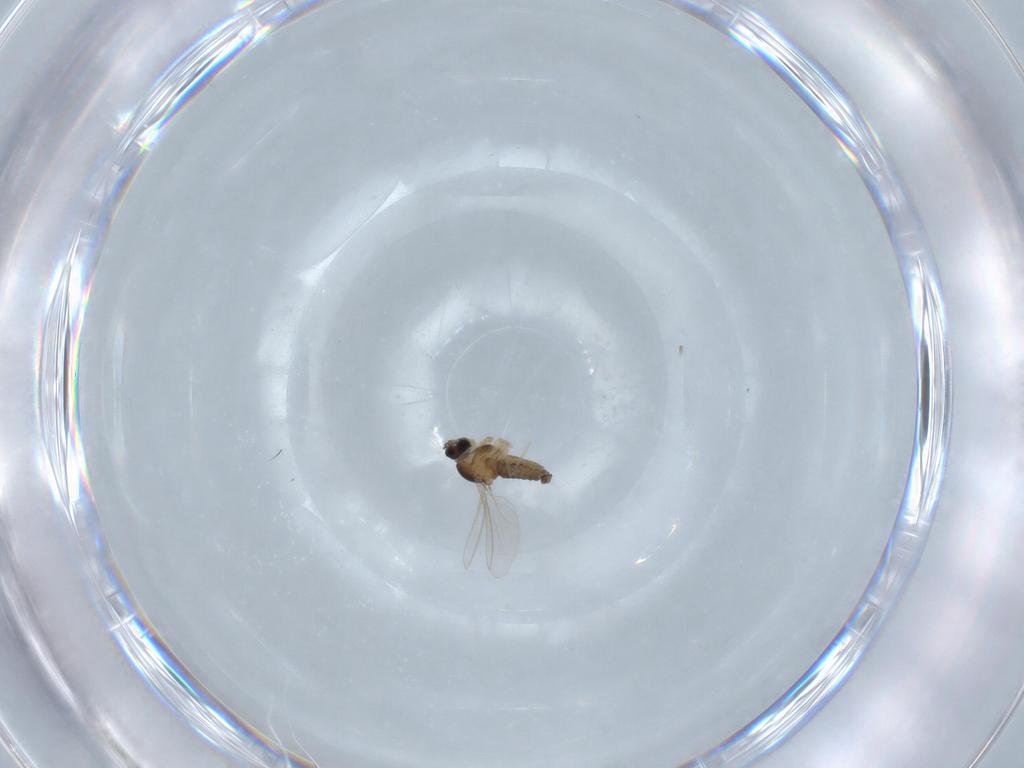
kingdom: Animalia
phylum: Arthropoda
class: Insecta
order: Diptera
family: Cecidomyiidae
